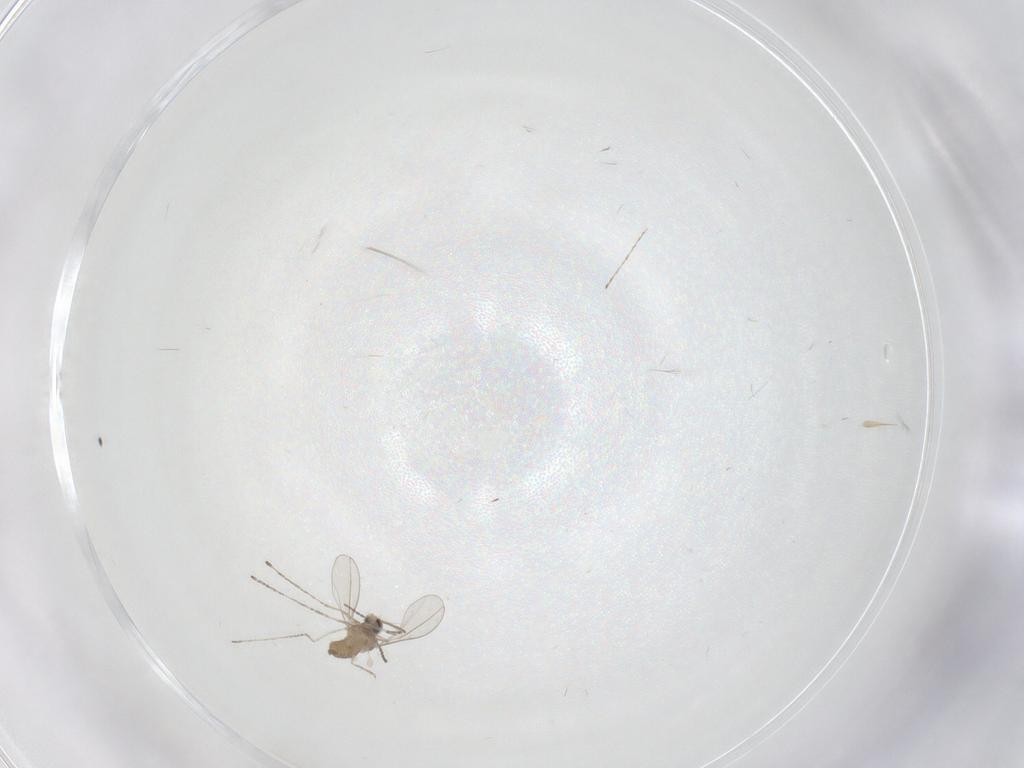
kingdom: Animalia
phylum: Arthropoda
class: Insecta
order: Diptera
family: Cecidomyiidae
